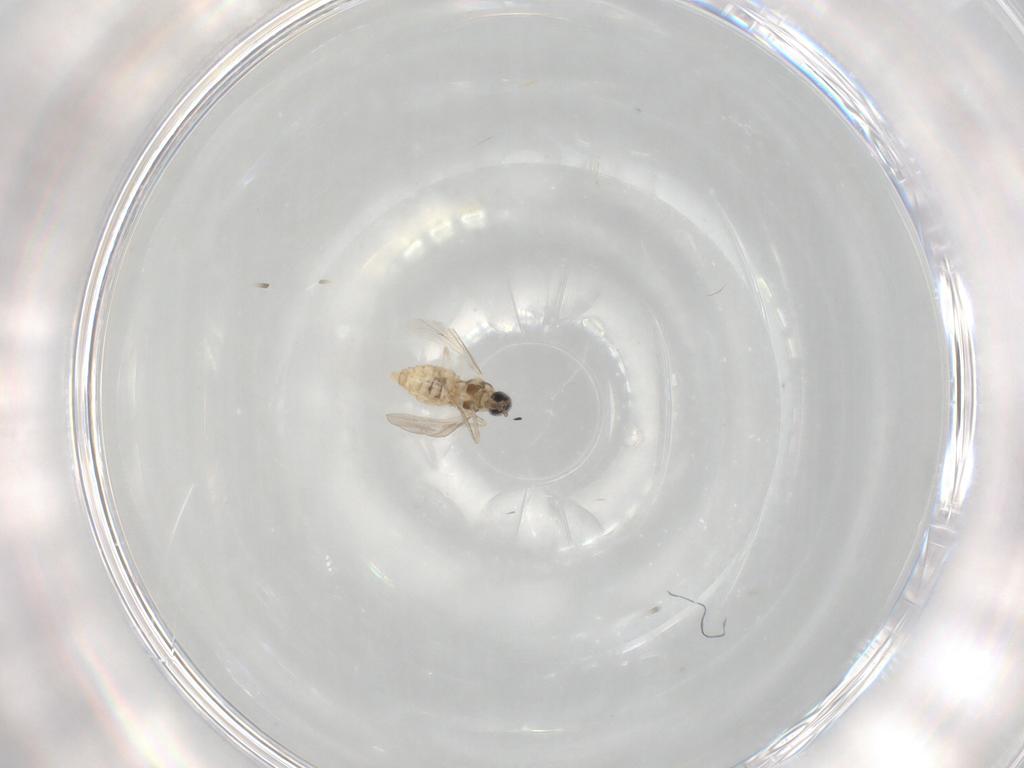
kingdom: Animalia
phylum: Arthropoda
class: Insecta
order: Diptera
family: Cecidomyiidae
